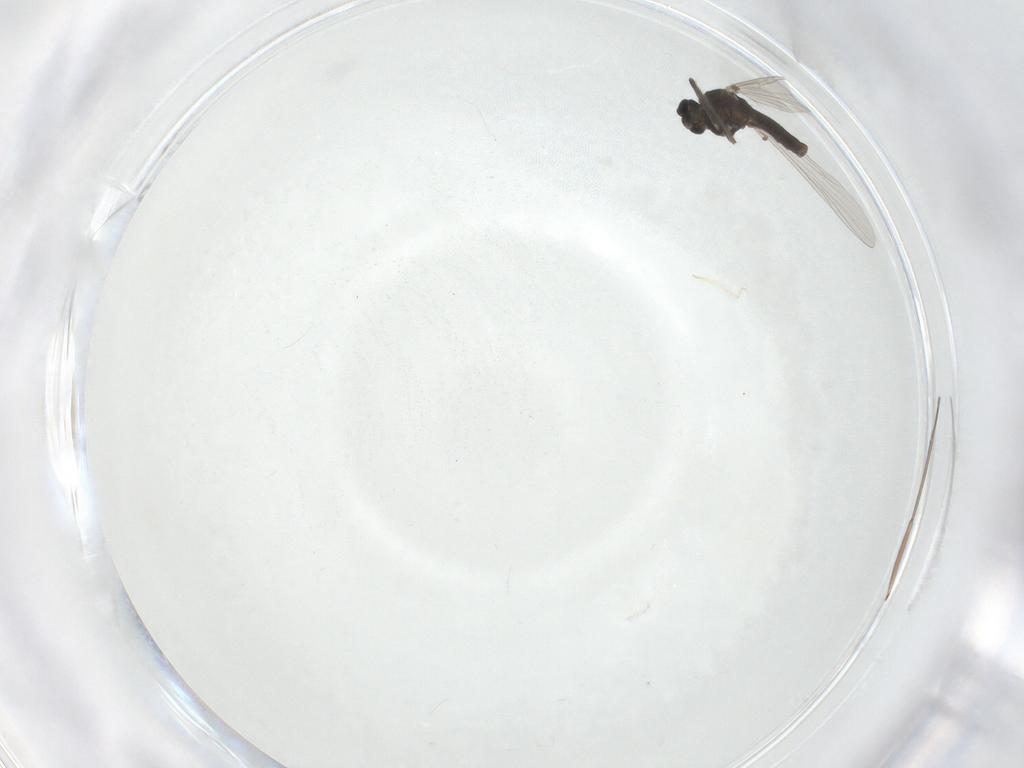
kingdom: Animalia
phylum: Arthropoda
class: Insecta
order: Diptera
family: Chironomidae
